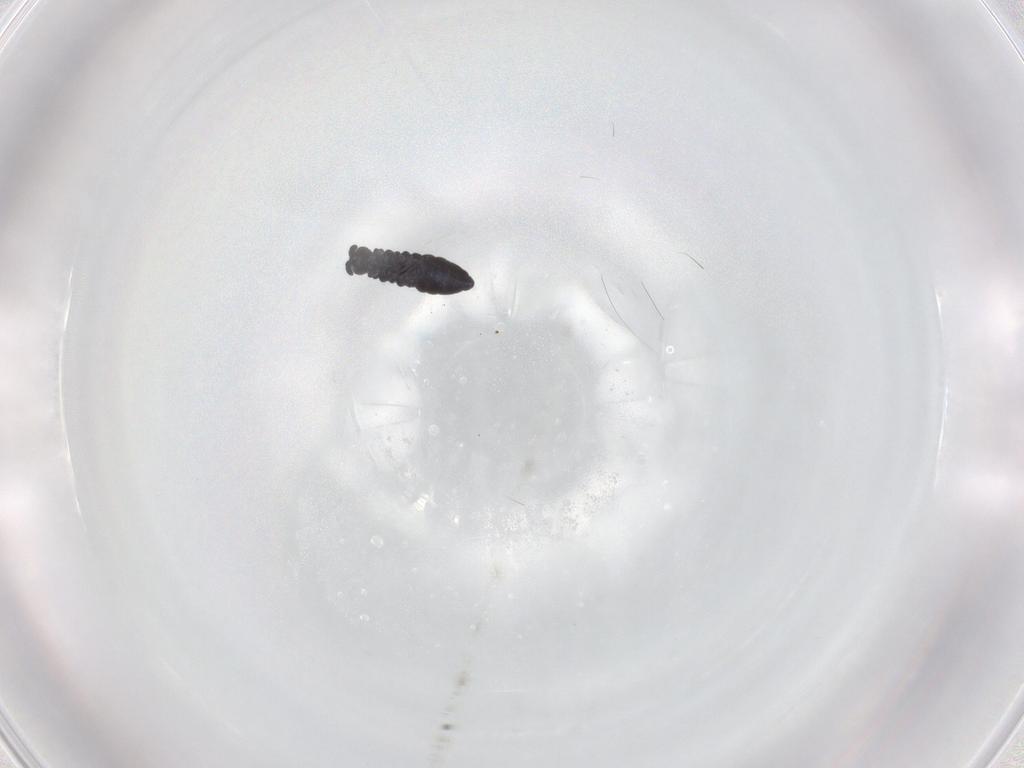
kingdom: Animalia
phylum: Arthropoda
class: Collembola
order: Poduromorpha
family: Hypogastruridae
